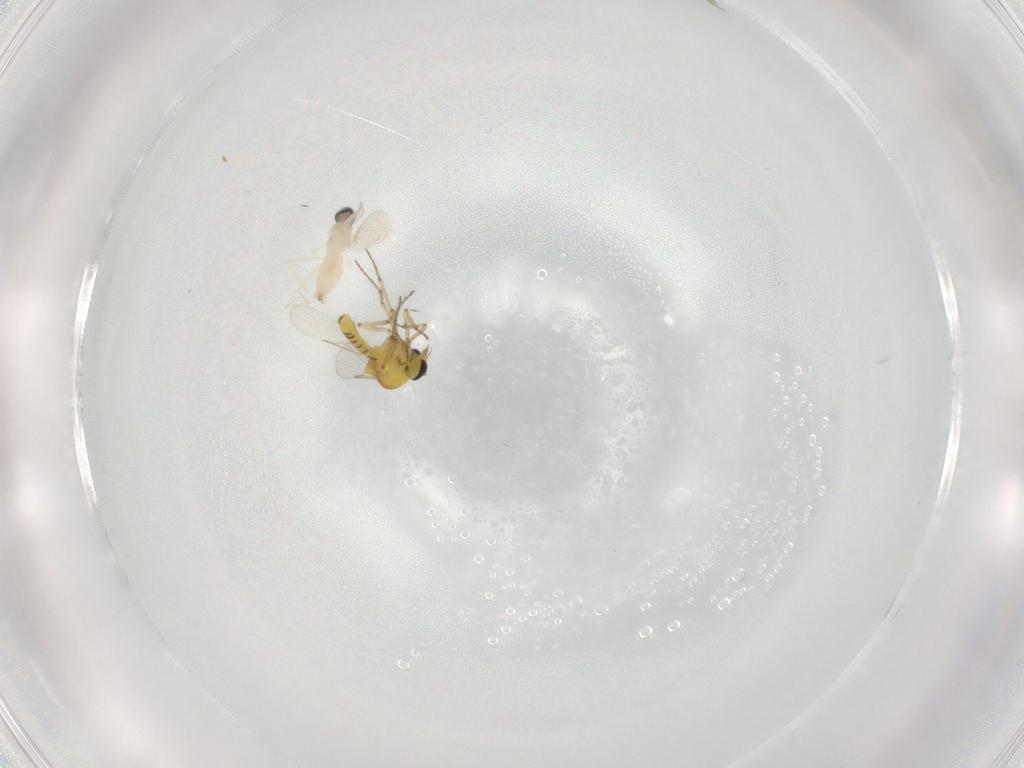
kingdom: Animalia
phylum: Arthropoda
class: Insecta
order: Diptera
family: Cecidomyiidae
